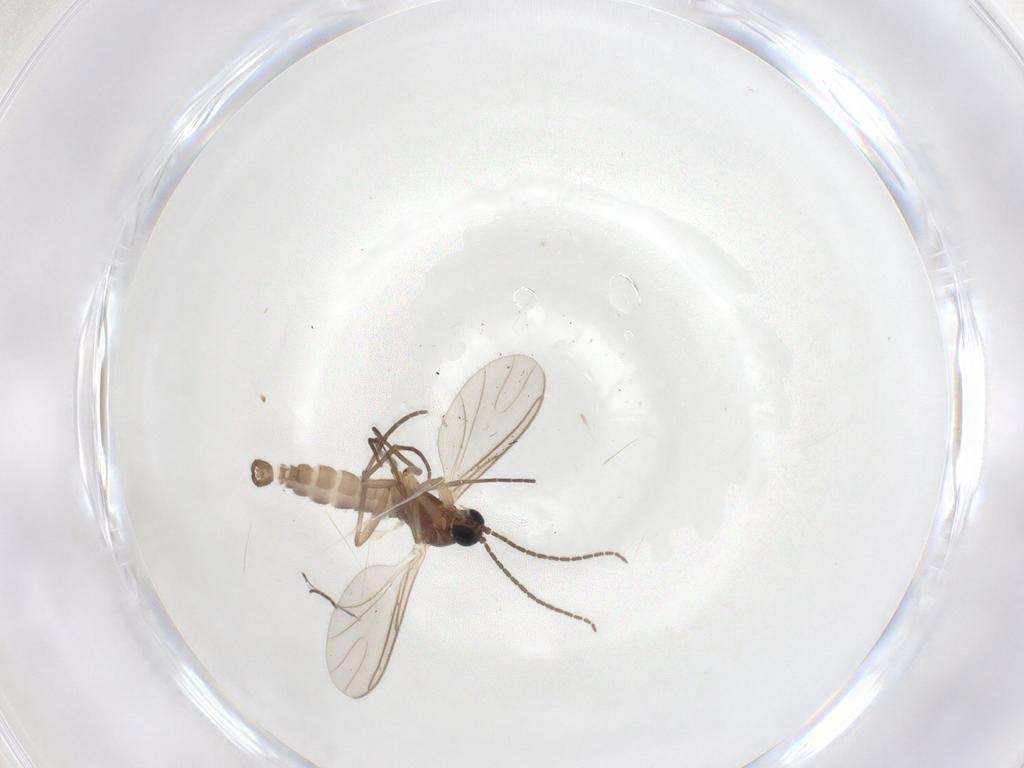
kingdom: Animalia
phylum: Arthropoda
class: Insecta
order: Diptera
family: Sciaridae
